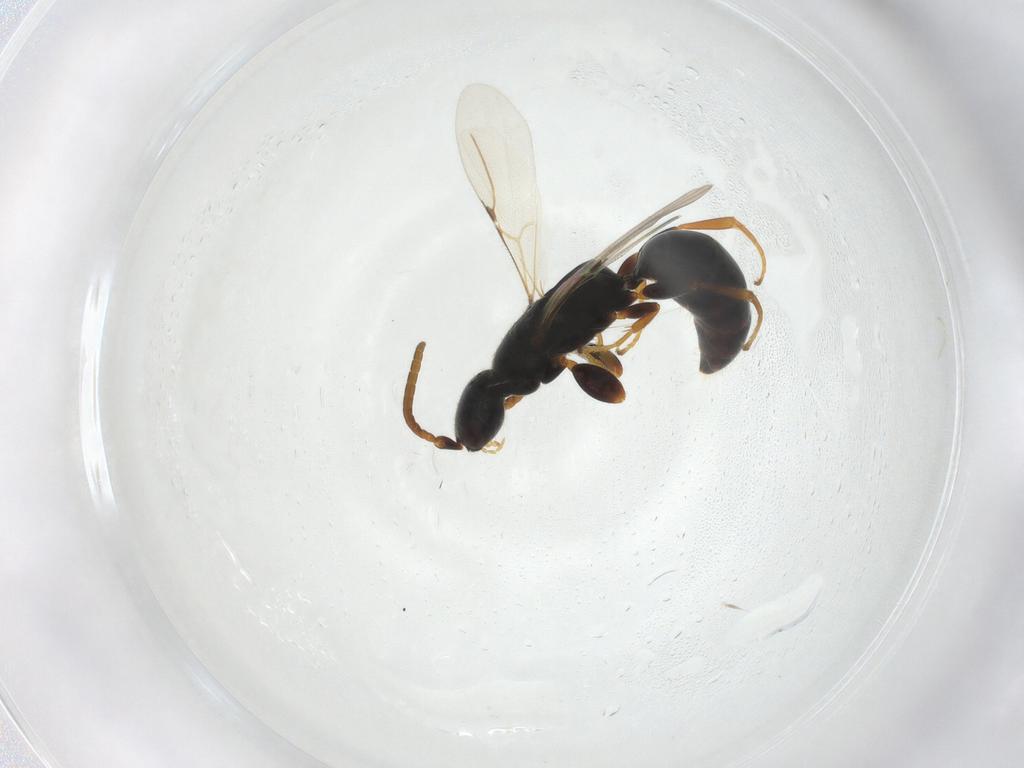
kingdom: Animalia
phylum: Arthropoda
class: Insecta
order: Hymenoptera
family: Bethylidae
